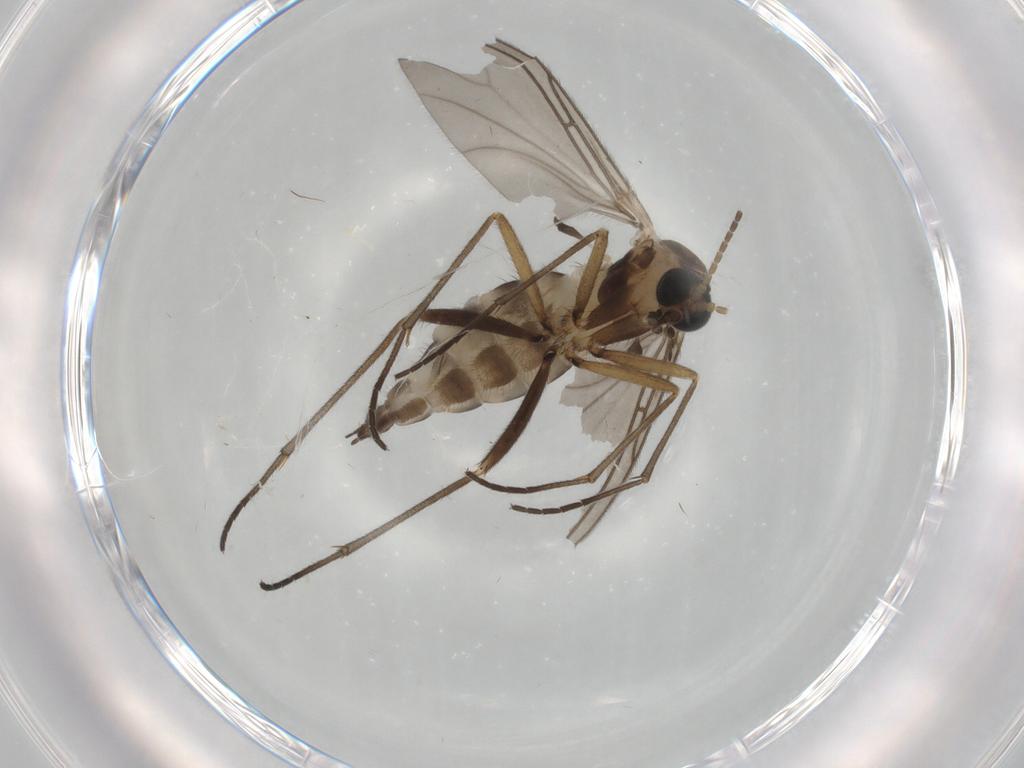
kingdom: Animalia
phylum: Arthropoda
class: Insecta
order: Diptera
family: Sciaridae
